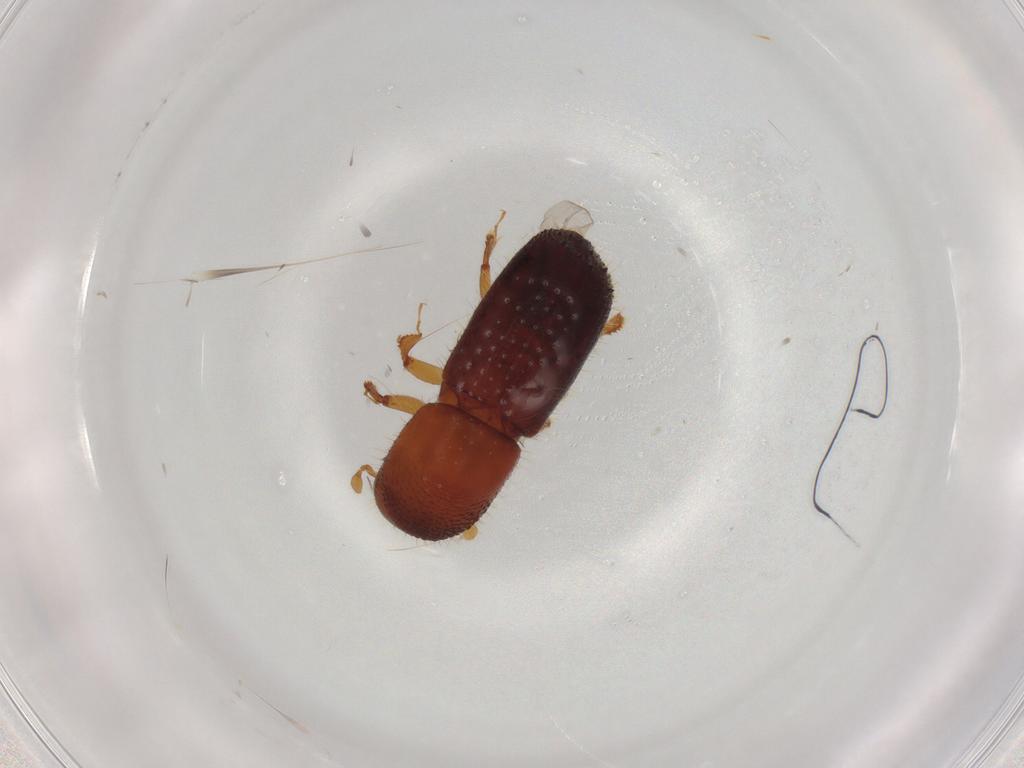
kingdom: Animalia
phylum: Arthropoda
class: Insecta
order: Coleoptera
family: Curculionidae
